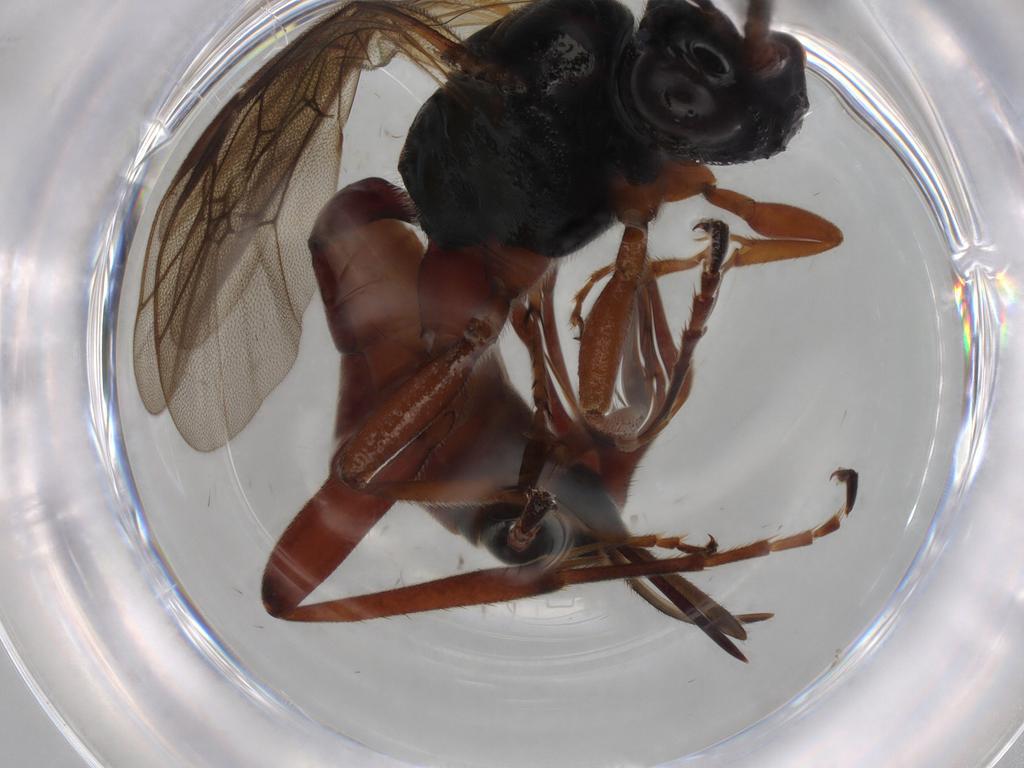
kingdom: Animalia
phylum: Arthropoda
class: Insecta
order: Hymenoptera
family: Ichneumonidae
